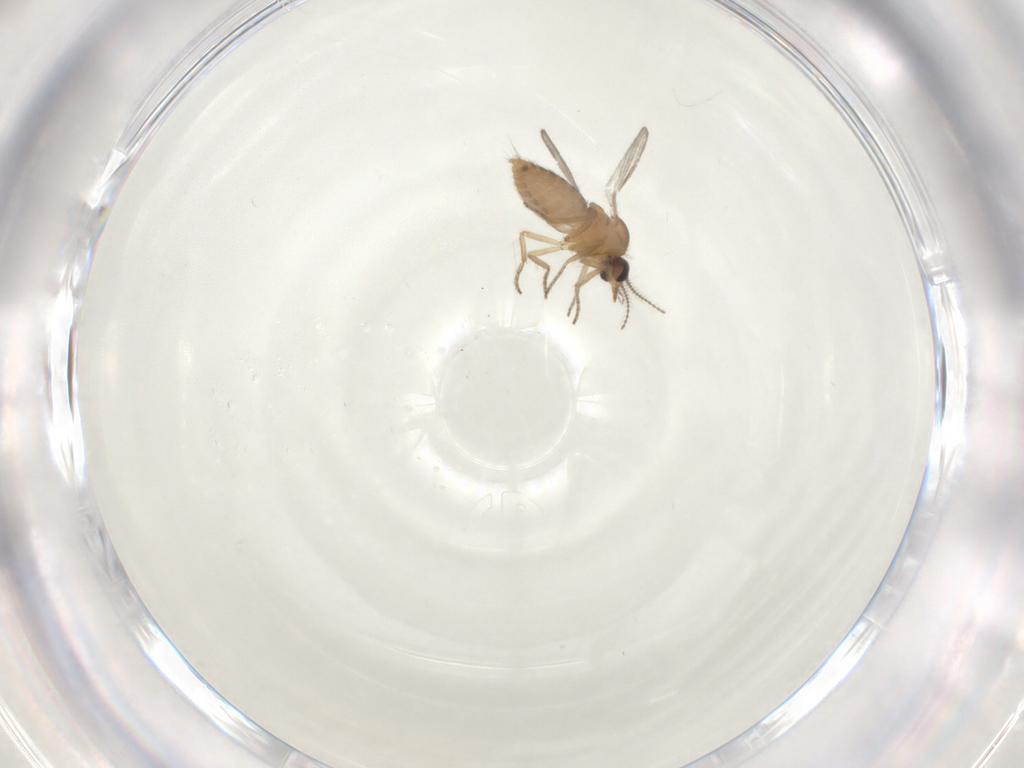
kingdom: Animalia
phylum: Arthropoda
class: Insecta
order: Diptera
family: Ceratopogonidae
